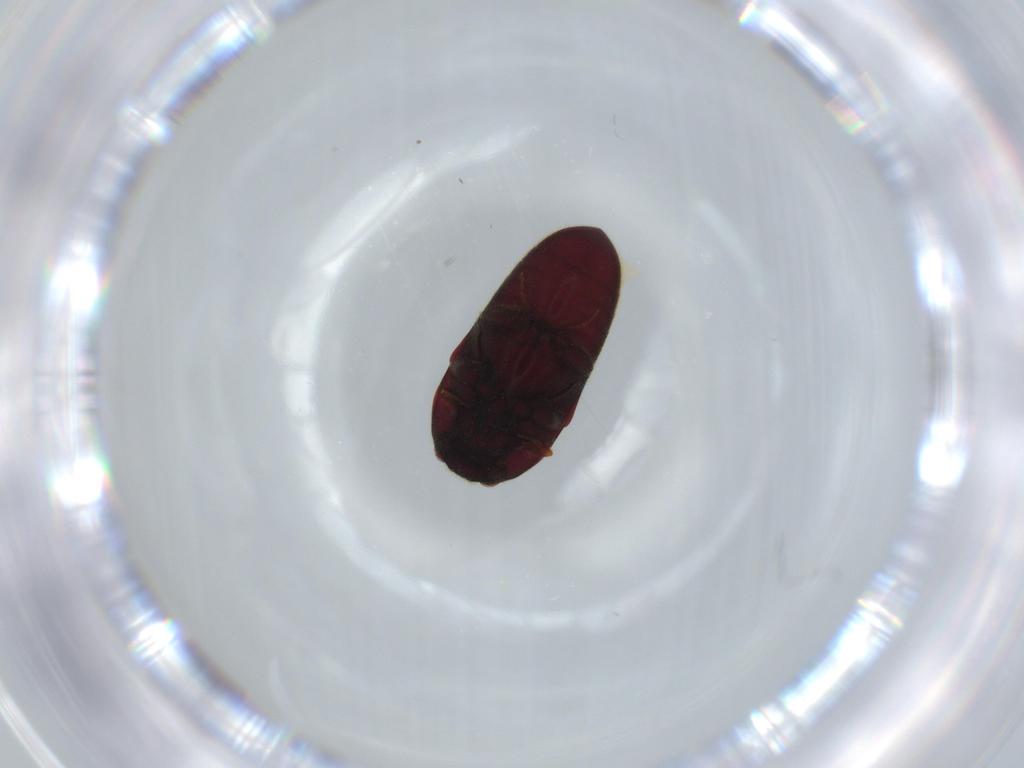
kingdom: Animalia
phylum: Arthropoda
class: Insecta
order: Coleoptera
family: Throscidae
